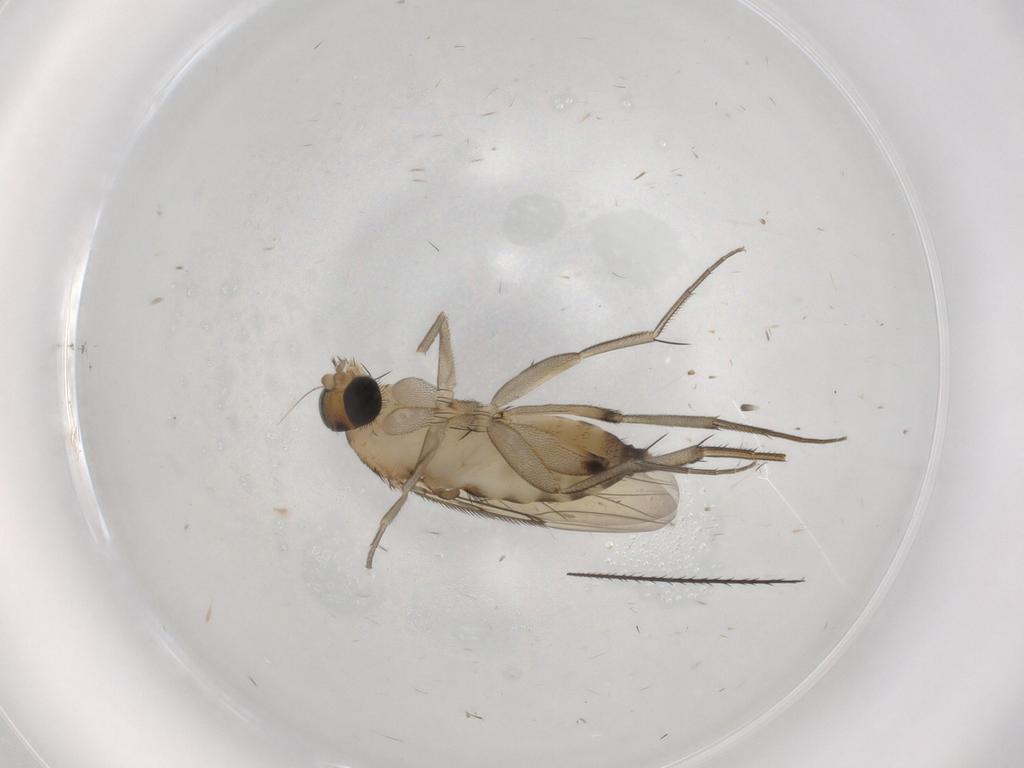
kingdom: Animalia
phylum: Arthropoda
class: Insecta
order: Diptera
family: Phoridae
